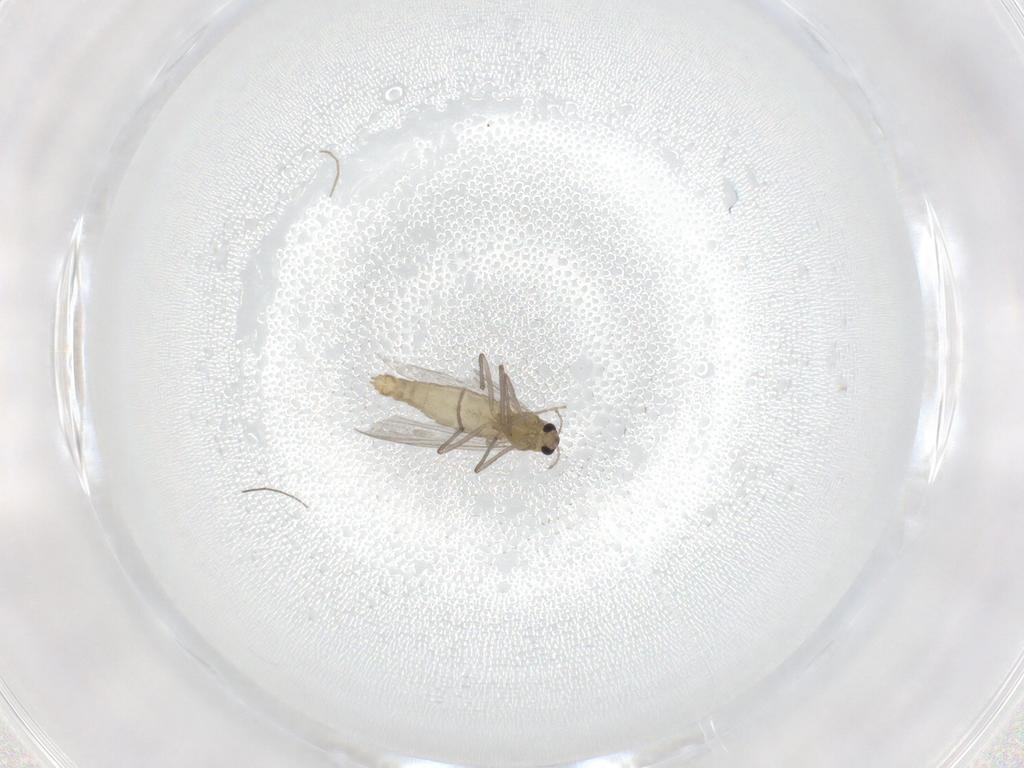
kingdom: Animalia
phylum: Arthropoda
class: Insecta
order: Diptera
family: Chironomidae
